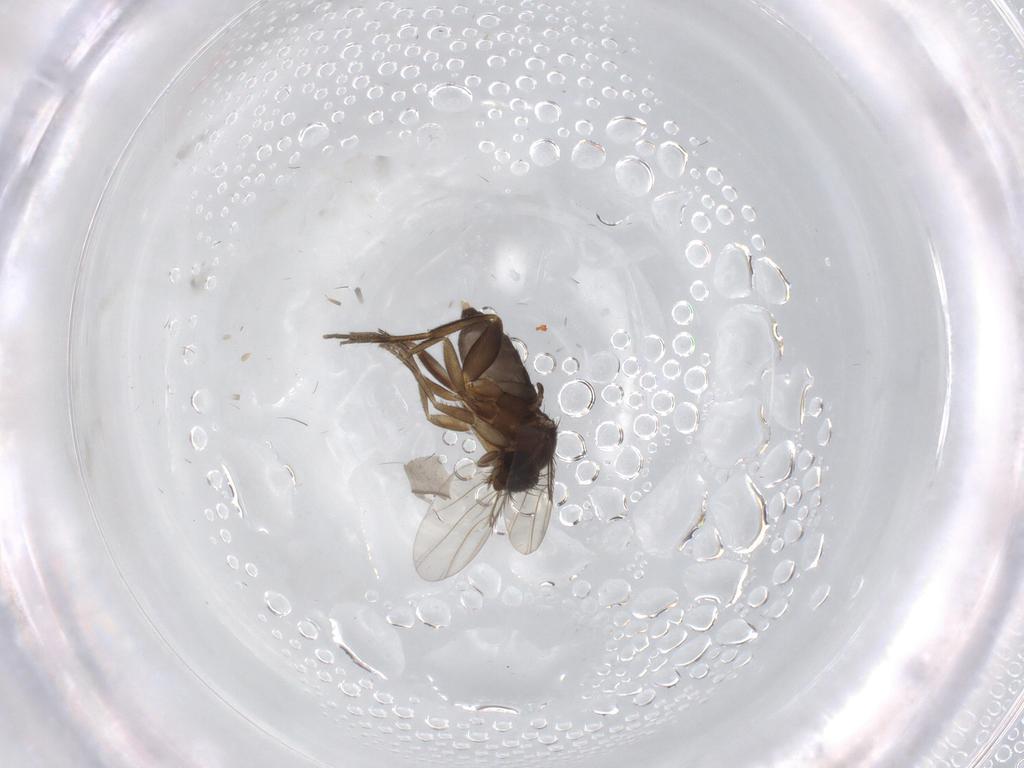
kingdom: Animalia
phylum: Arthropoda
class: Insecta
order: Diptera
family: Phoridae
